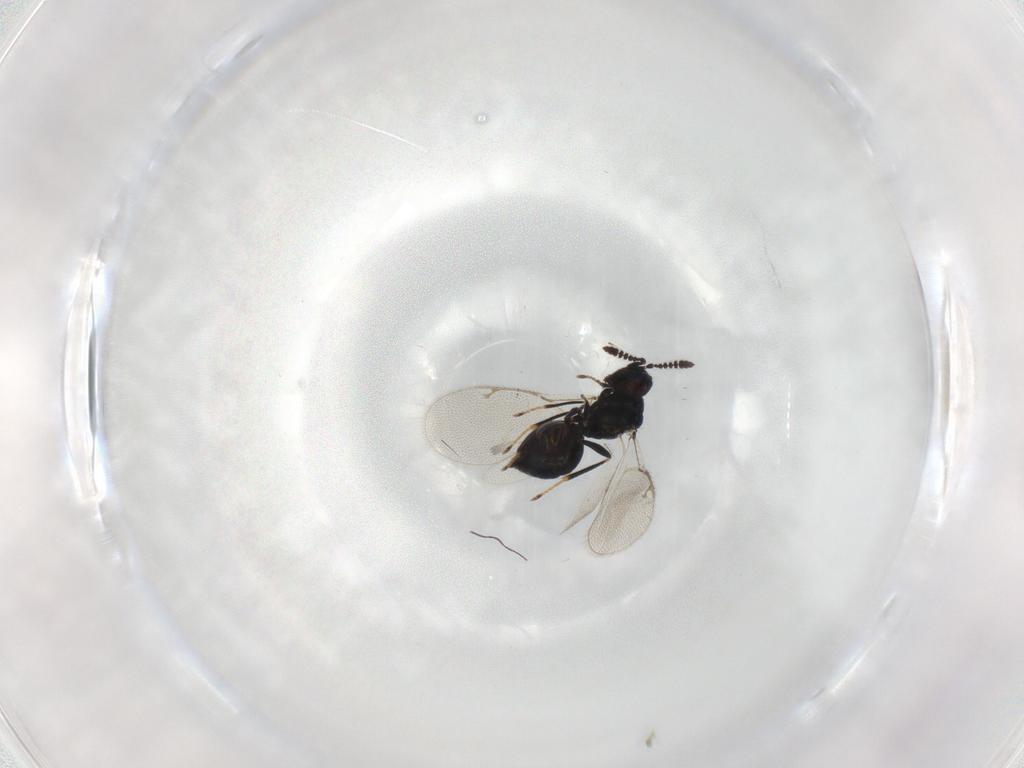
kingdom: Animalia
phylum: Arthropoda
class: Insecta
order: Hymenoptera
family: Pteromalidae
